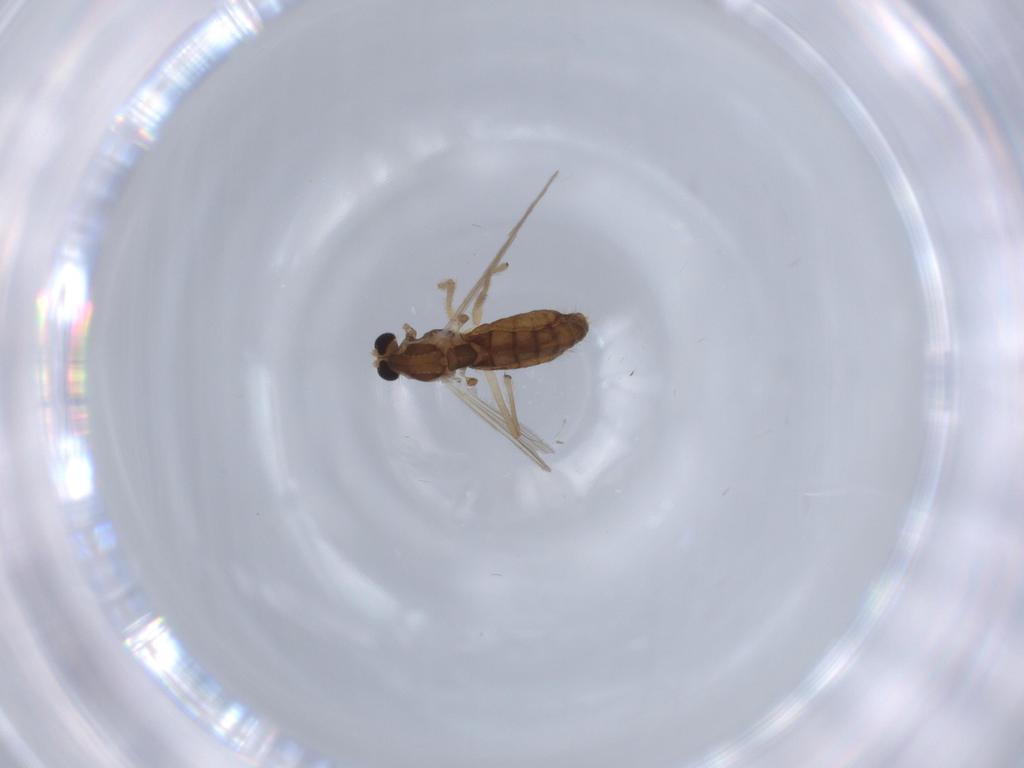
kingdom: Animalia
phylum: Arthropoda
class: Insecta
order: Diptera
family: Chironomidae
